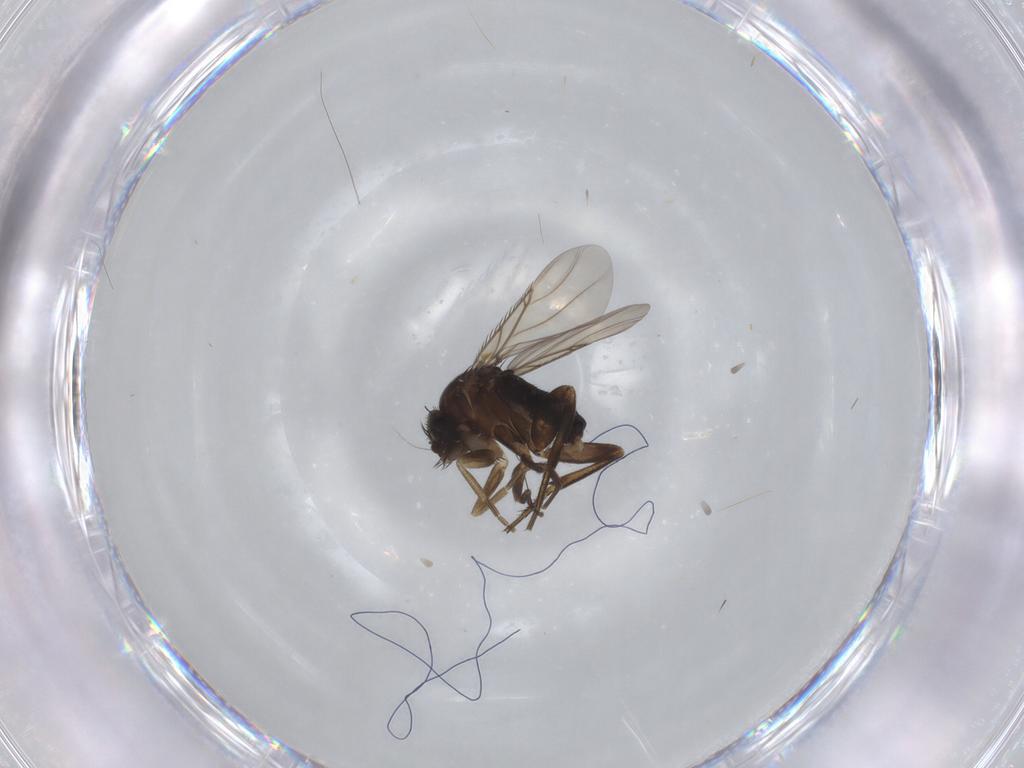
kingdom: Animalia
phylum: Arthropoda
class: Insecta
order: Diptera
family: Phoridae
